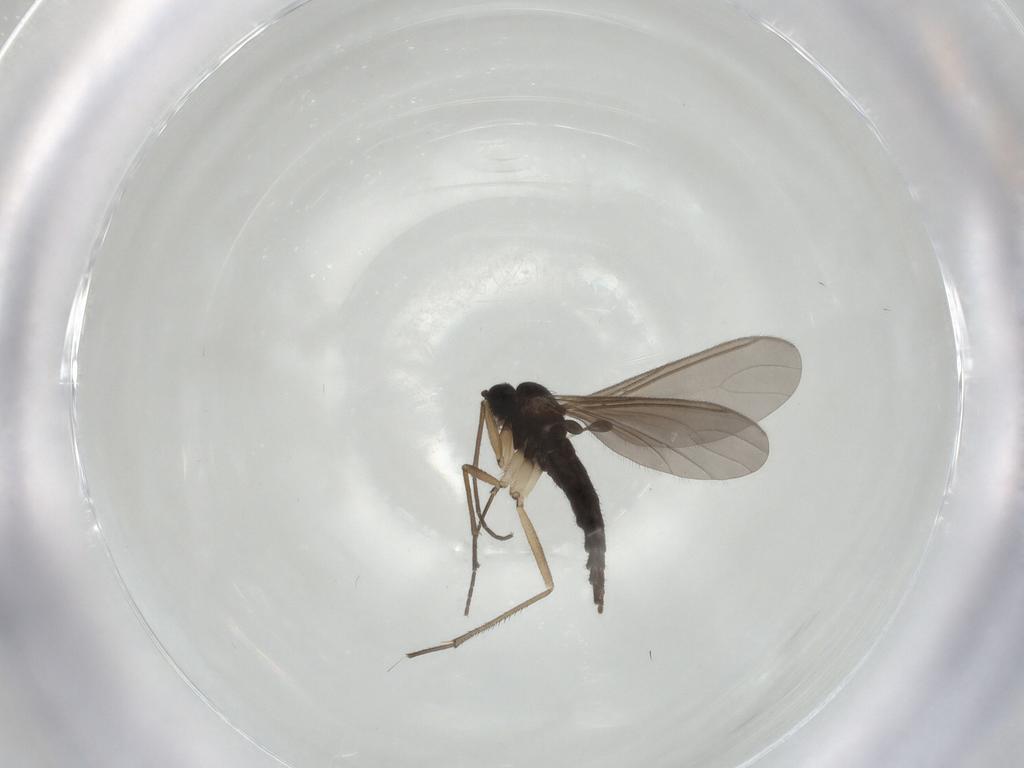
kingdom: Animalia
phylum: Arthropoda
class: Insecta
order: Diptera
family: Sciaridae
